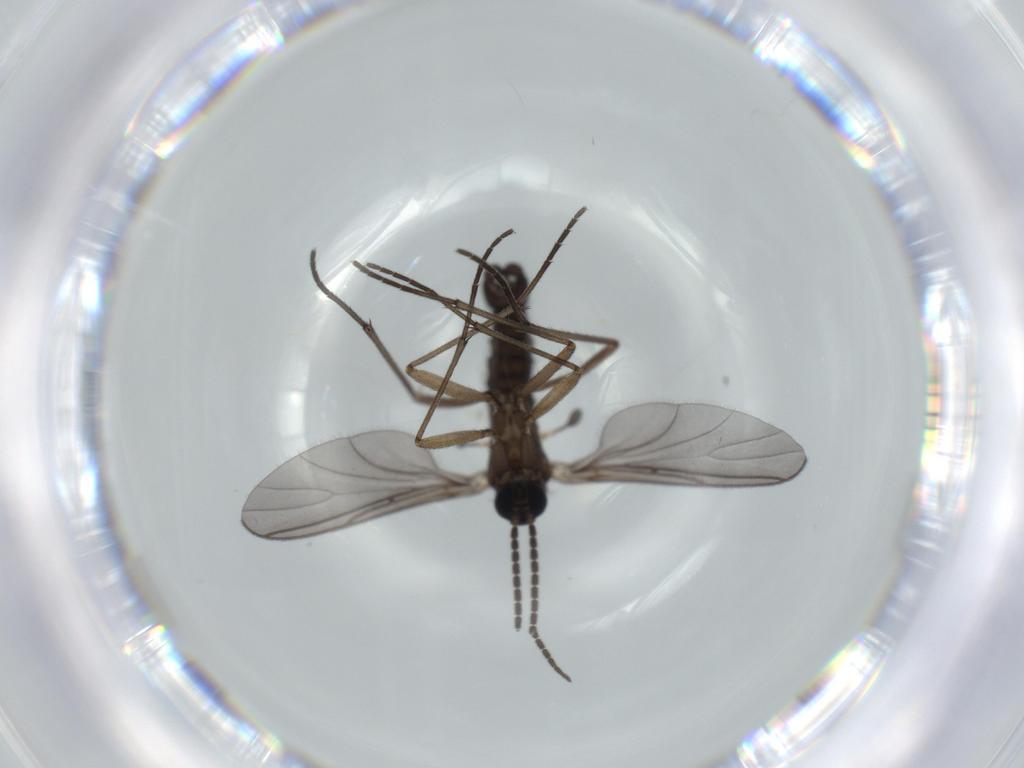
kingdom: Animalia
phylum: Arthropoda
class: Insecta
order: Diptera
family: Sciaridae
